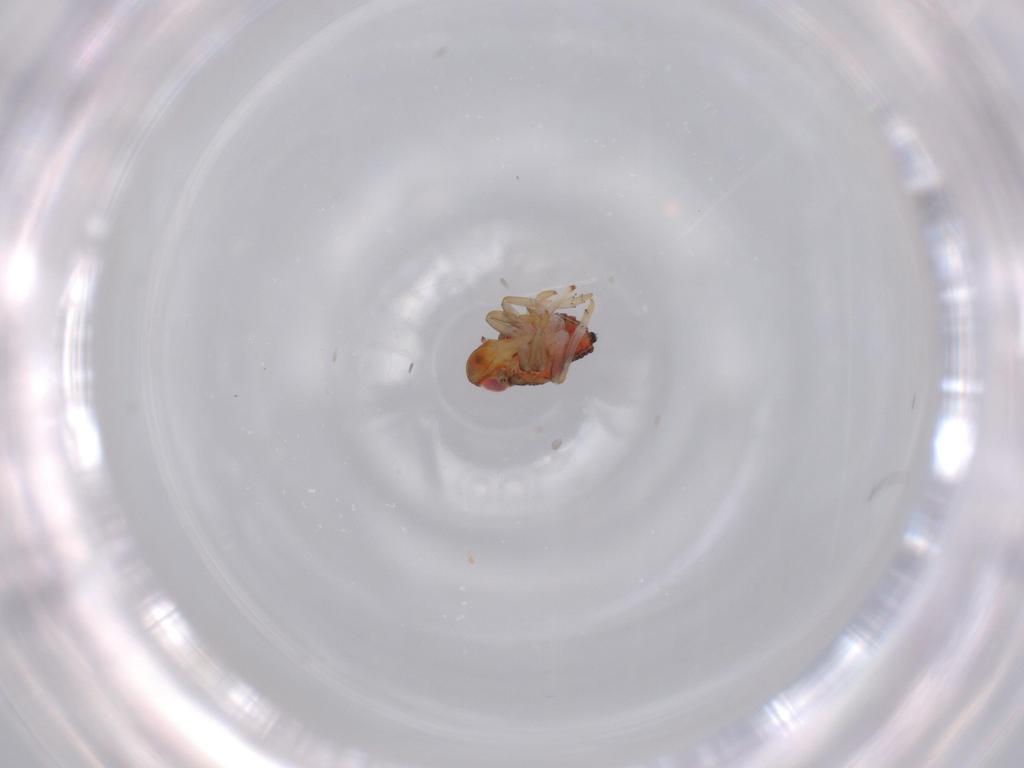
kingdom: Animalia
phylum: Arthropoda
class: Insecta
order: Hemiptera
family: Issidae
